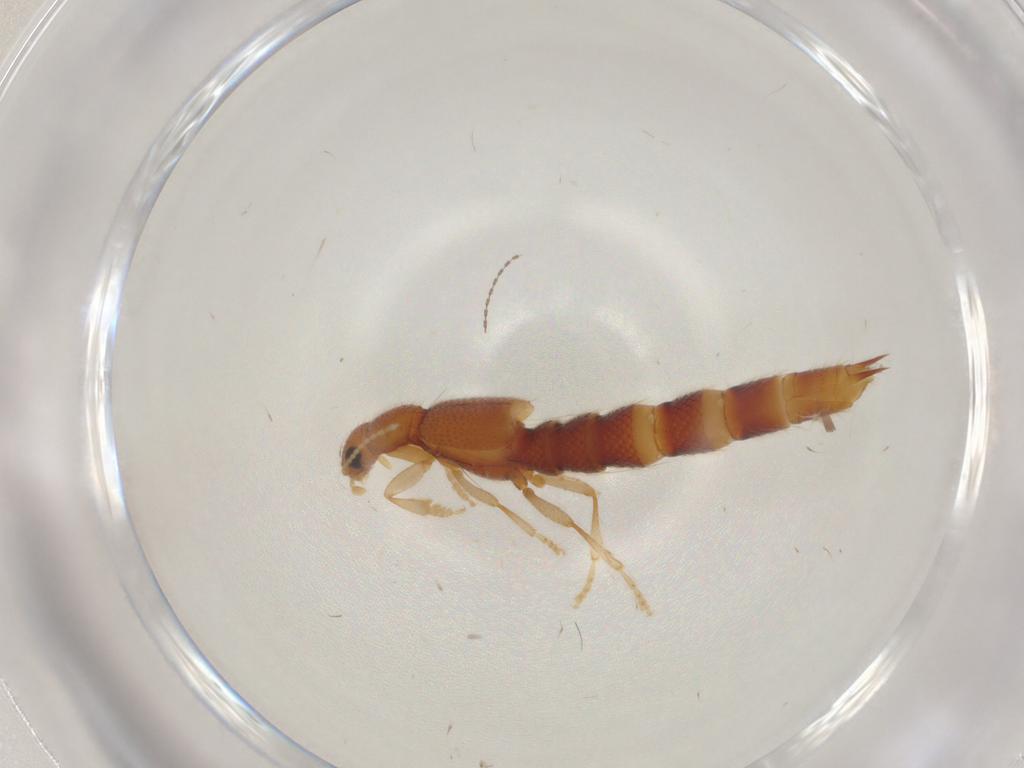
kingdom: Animalia
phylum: Arthropoda
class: Insecta
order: Coleoptera
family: Staphylinidae
